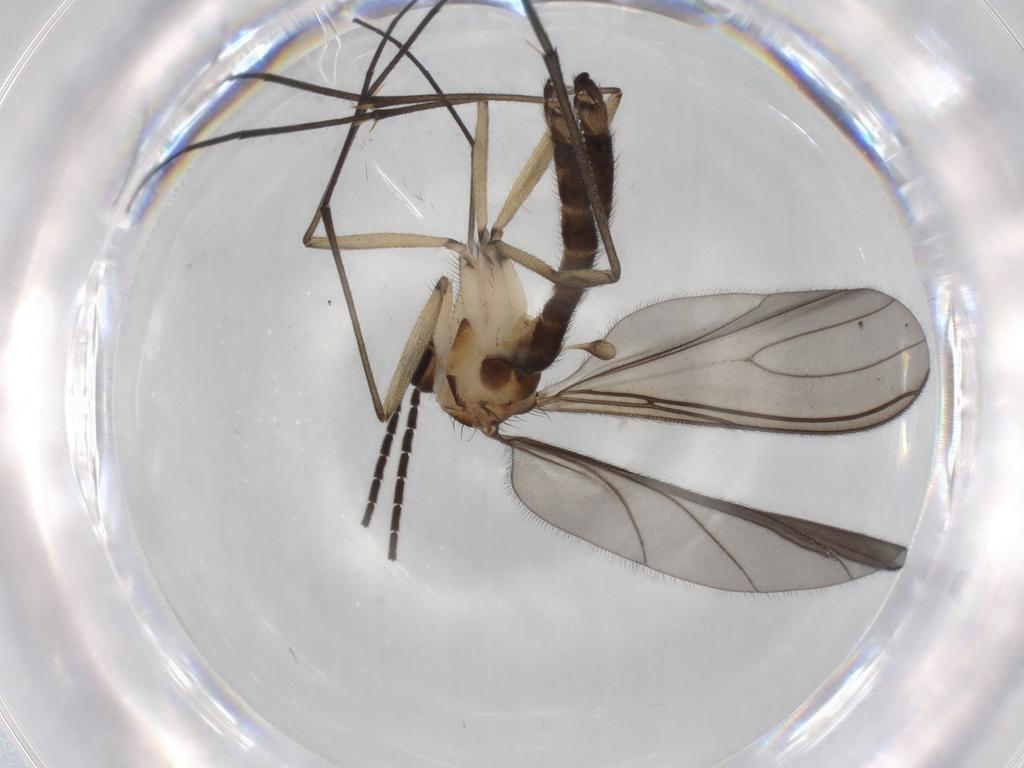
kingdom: Animalia
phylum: Arthropoda
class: Insecta
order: Diptera
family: Sciaridae
